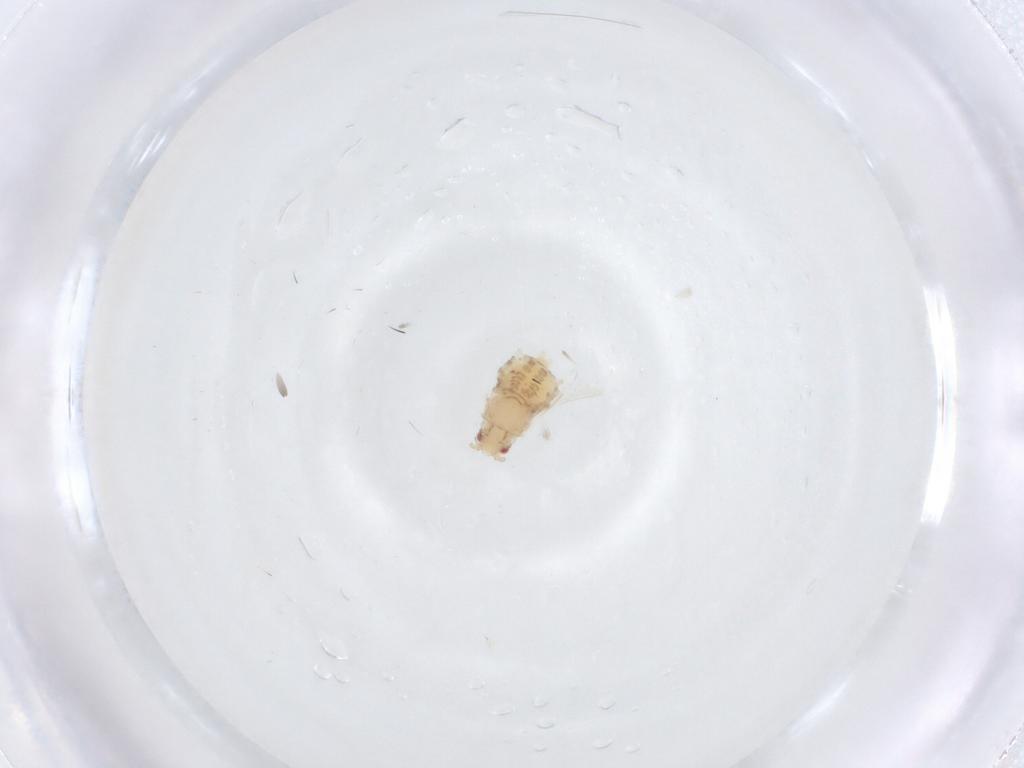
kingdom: Animalia
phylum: Arthropoda
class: Insecta
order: Hemiptera
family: Aphididae
